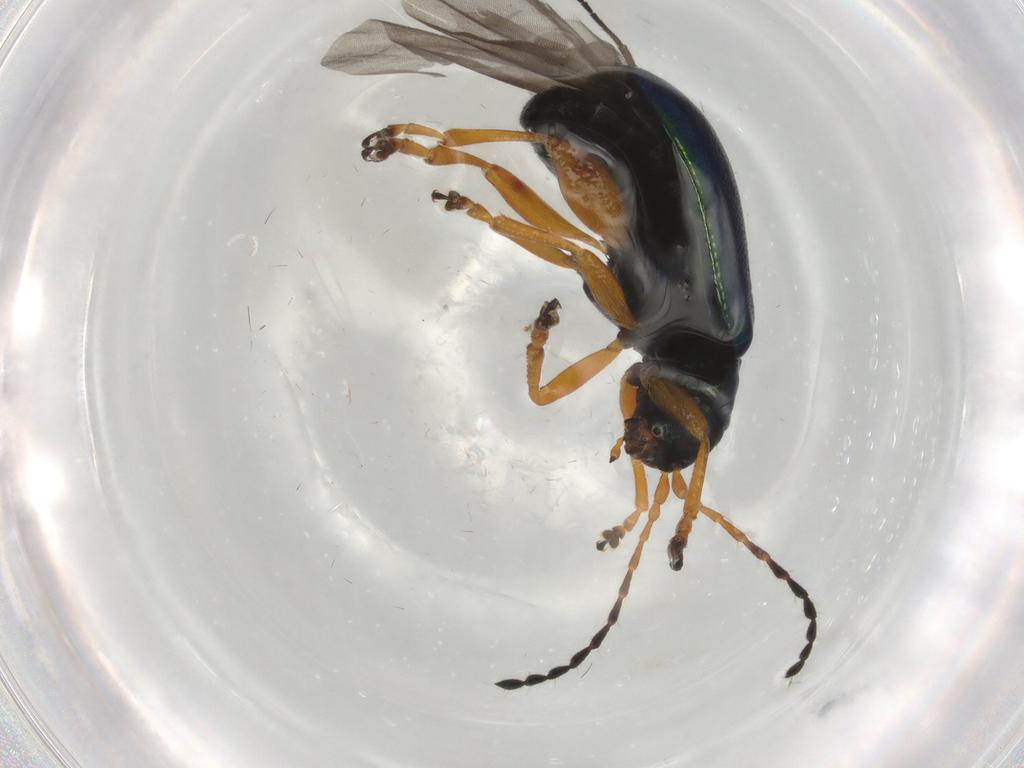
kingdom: Animalia
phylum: Arthropoda
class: Insecta
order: Coleoptera
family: Chrysomelidae
